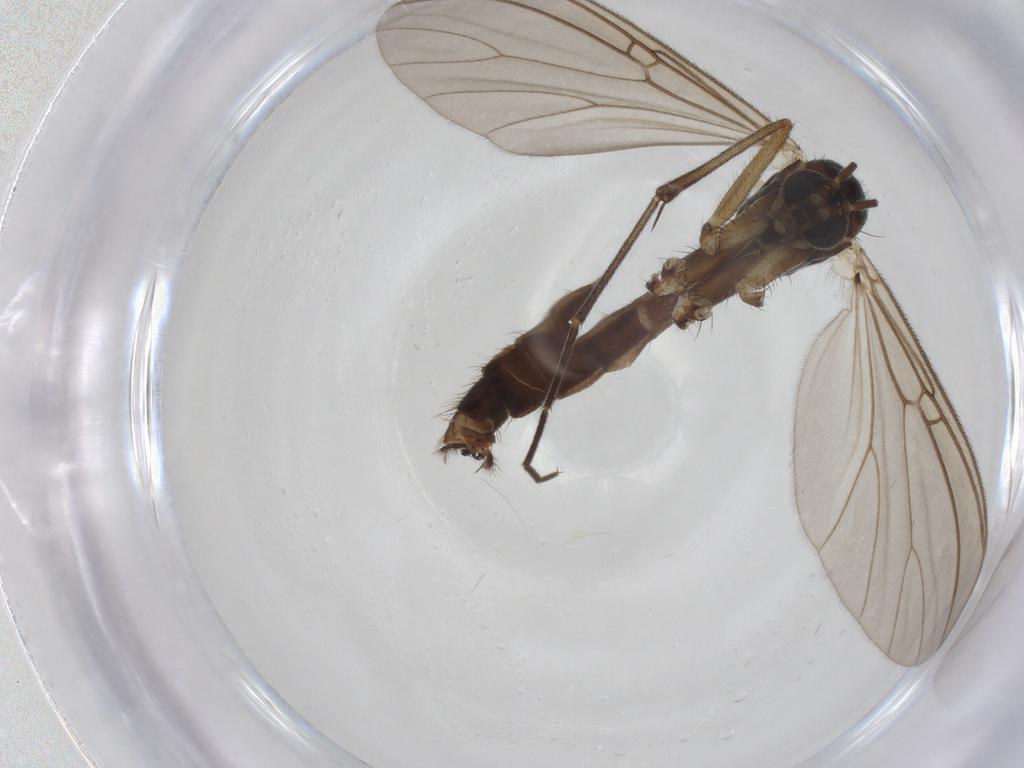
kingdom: Animalia
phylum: Arthropoda
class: Insecta
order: Diptera
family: Mycetophilidae
